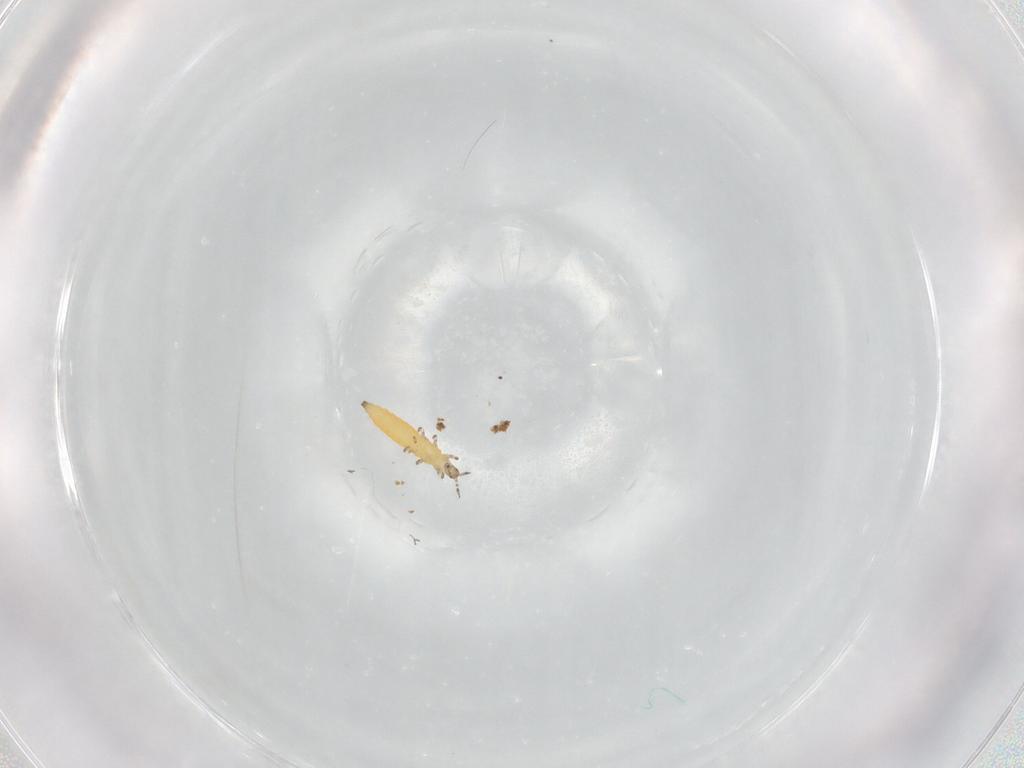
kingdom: Animalia
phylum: Arthropoda
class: Insecta
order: Thysanoptera
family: Thripidae
